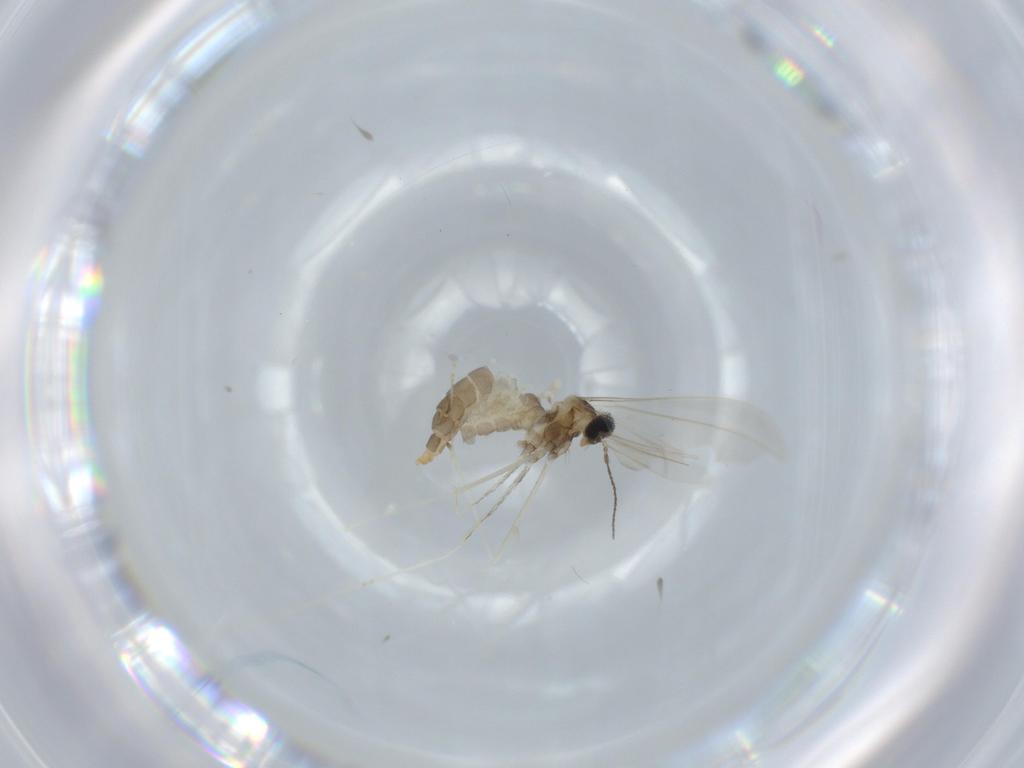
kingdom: Animalia
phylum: Arthropoda
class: Insecta
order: Diptera
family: Cecidomyiidae
